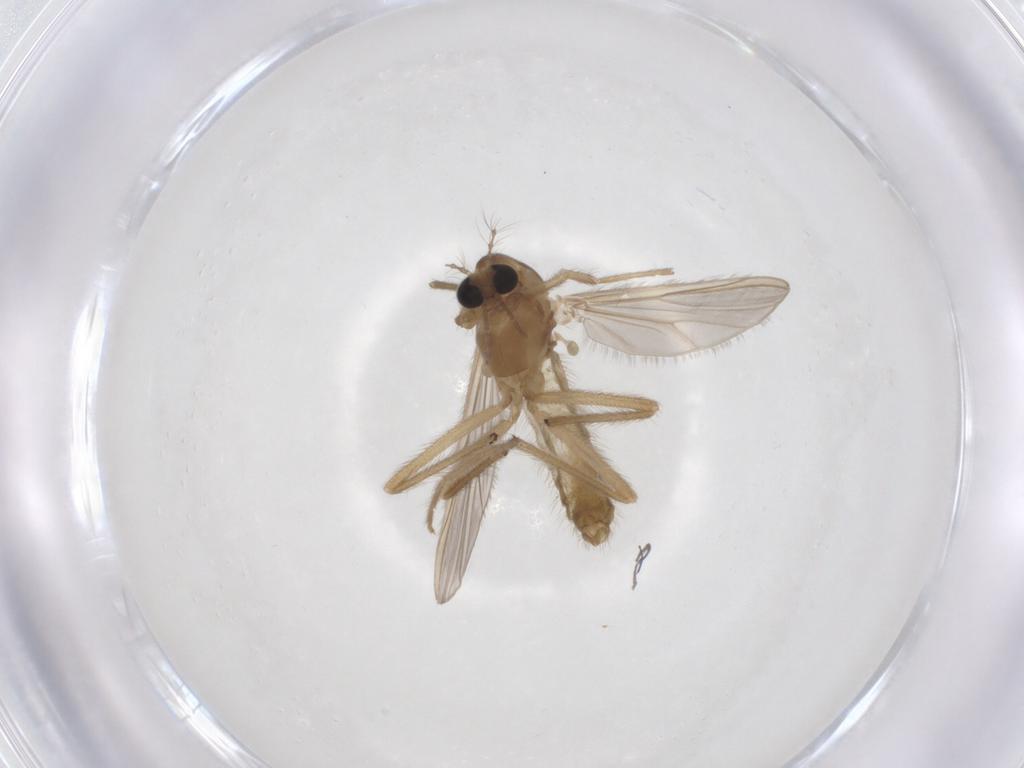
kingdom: Animalia
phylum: Arthropoda
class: Insecta
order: Diptera
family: Chironomidae
